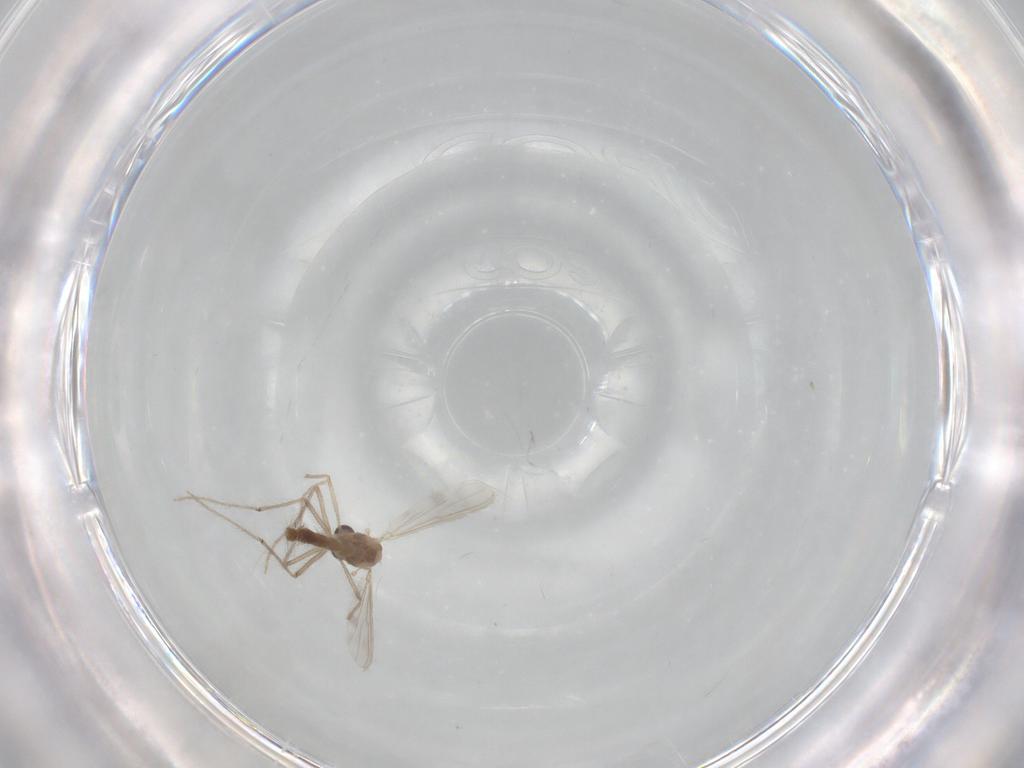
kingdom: Animalia
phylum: Arthropoda
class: Insecta
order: Diptera
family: Chironomidae
